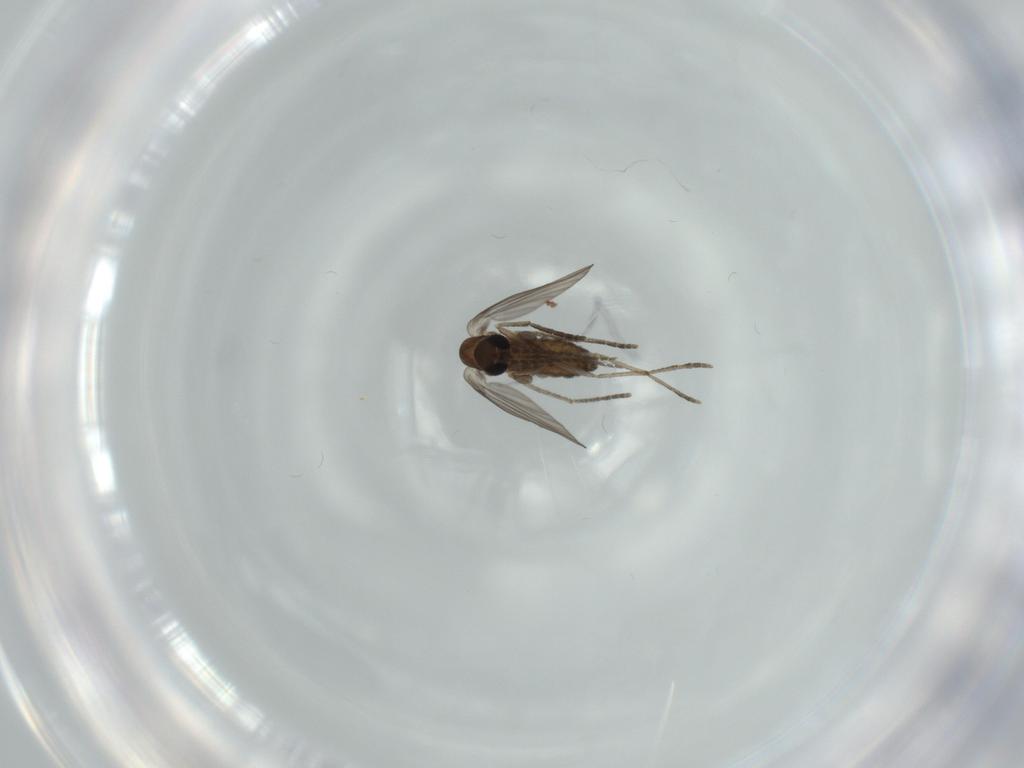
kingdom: Animalia
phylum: Arthropoda
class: Insecta
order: Diptera
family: Psychodidae
